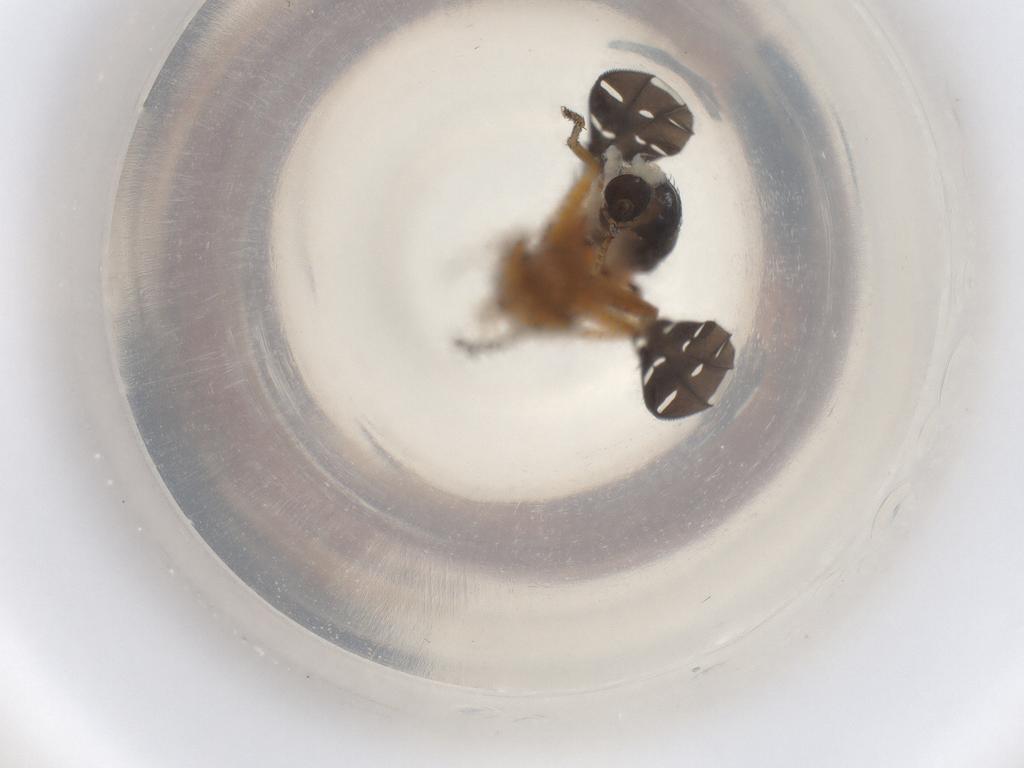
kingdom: Animalia
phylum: Arthropoda
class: Insecta
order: Diptera
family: Ephydridae
